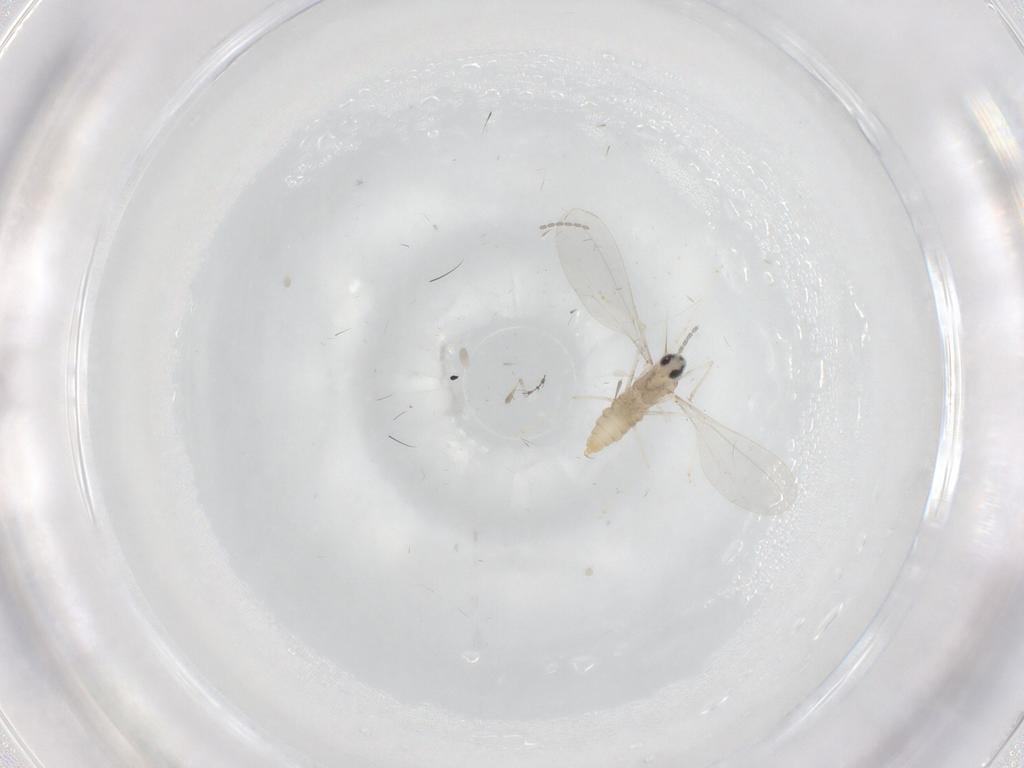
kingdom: Animalia
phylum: Arthropoda
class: Insecta
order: Diptera
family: Cecidomyiidae
